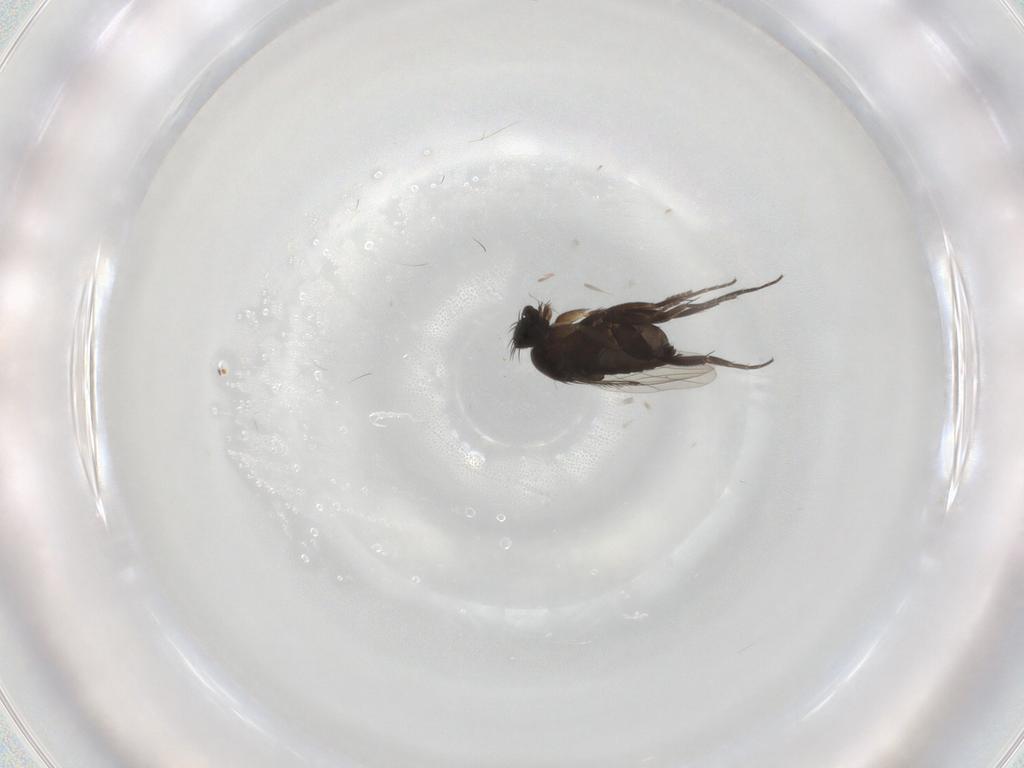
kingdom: Animalia
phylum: Arthropoda
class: Insecta
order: Diptera
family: Phoridae
